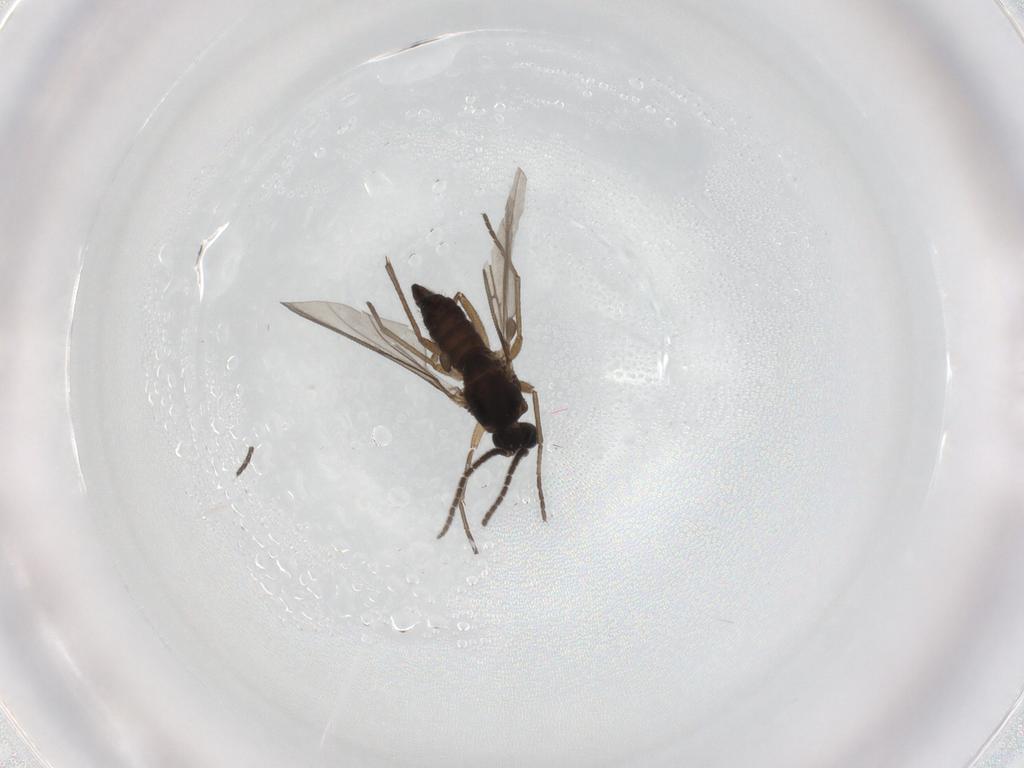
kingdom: Animalia
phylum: Arthropoda
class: Insecta
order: Diptera
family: Sciaridae
